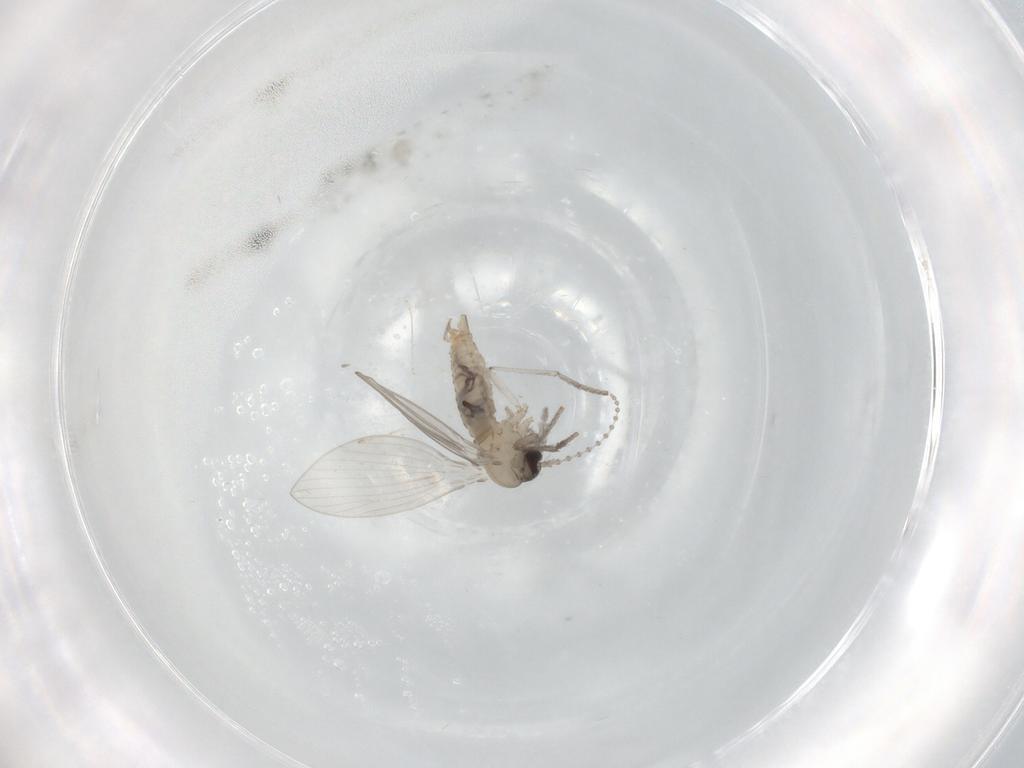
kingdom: Animalia
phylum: Arthropoda
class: Insecta
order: Diptera
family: Psychodidae
